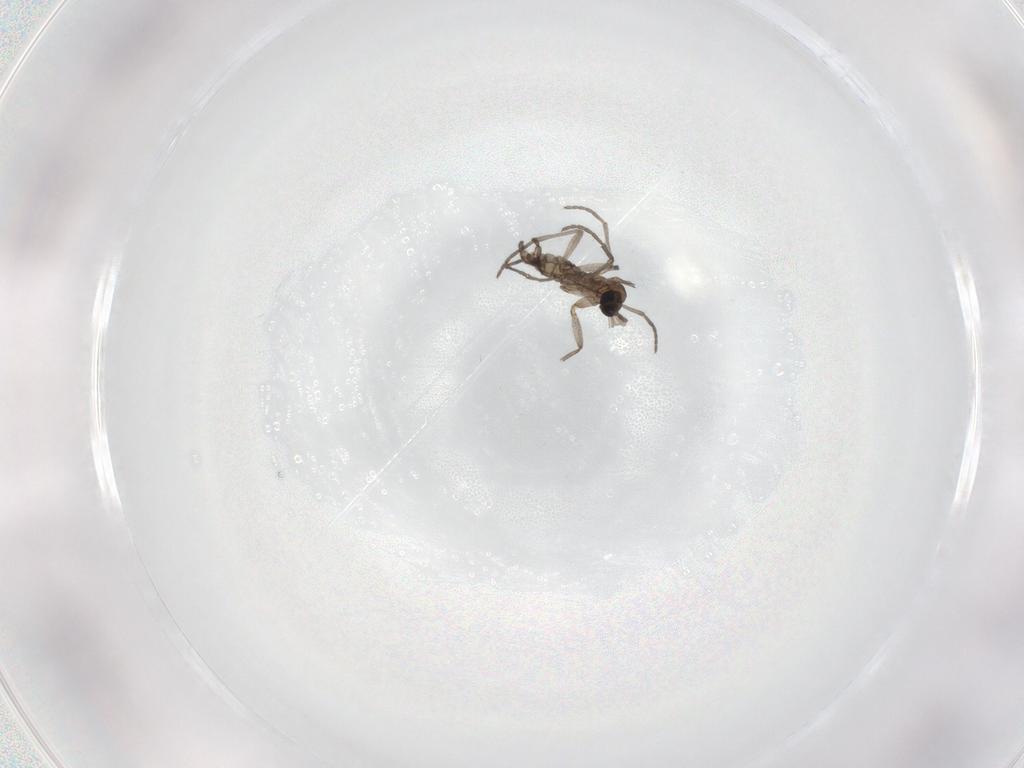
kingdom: Animalia
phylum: Arthropoda
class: Insecta
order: Diptera
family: Sciaridae
